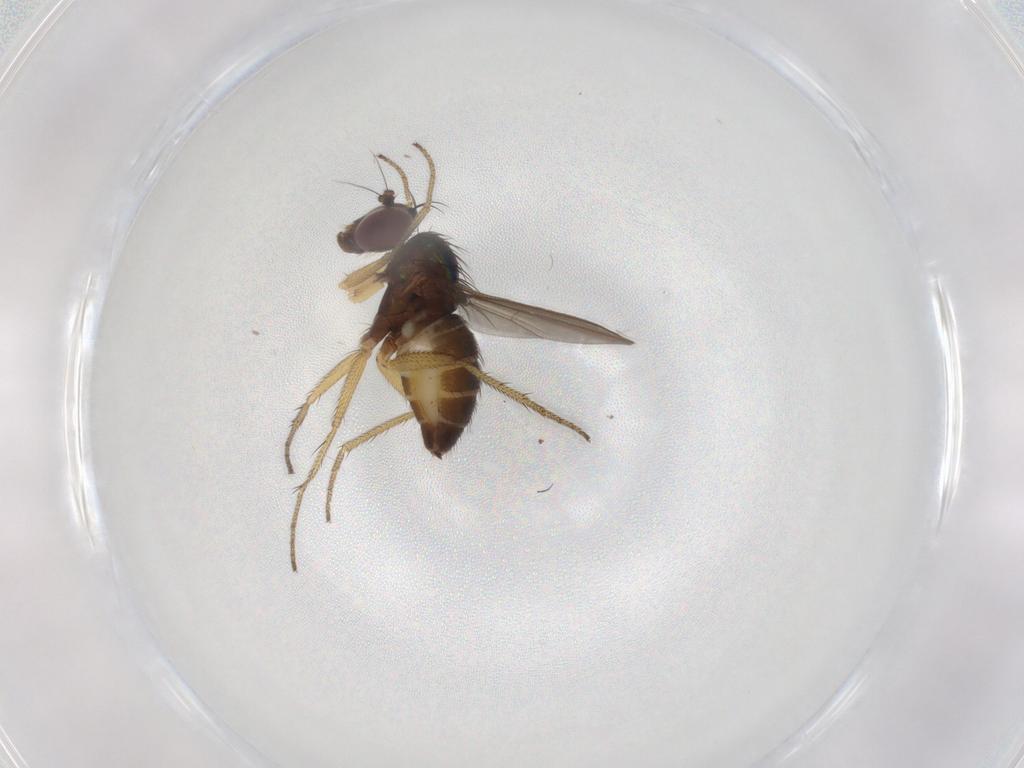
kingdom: Animalia
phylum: Arthropoda
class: Insecta
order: Diptera
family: Dolichopodidae
